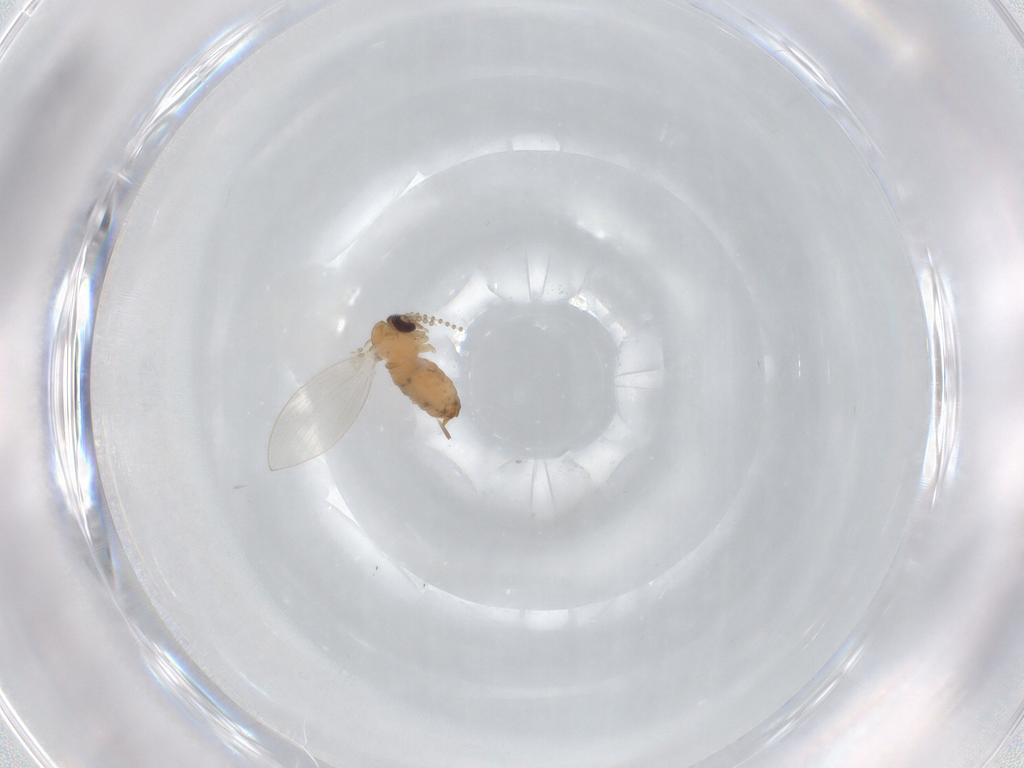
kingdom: Animalia
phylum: Arthropoda
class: Insecta
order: Diptera
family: Psychodidae
